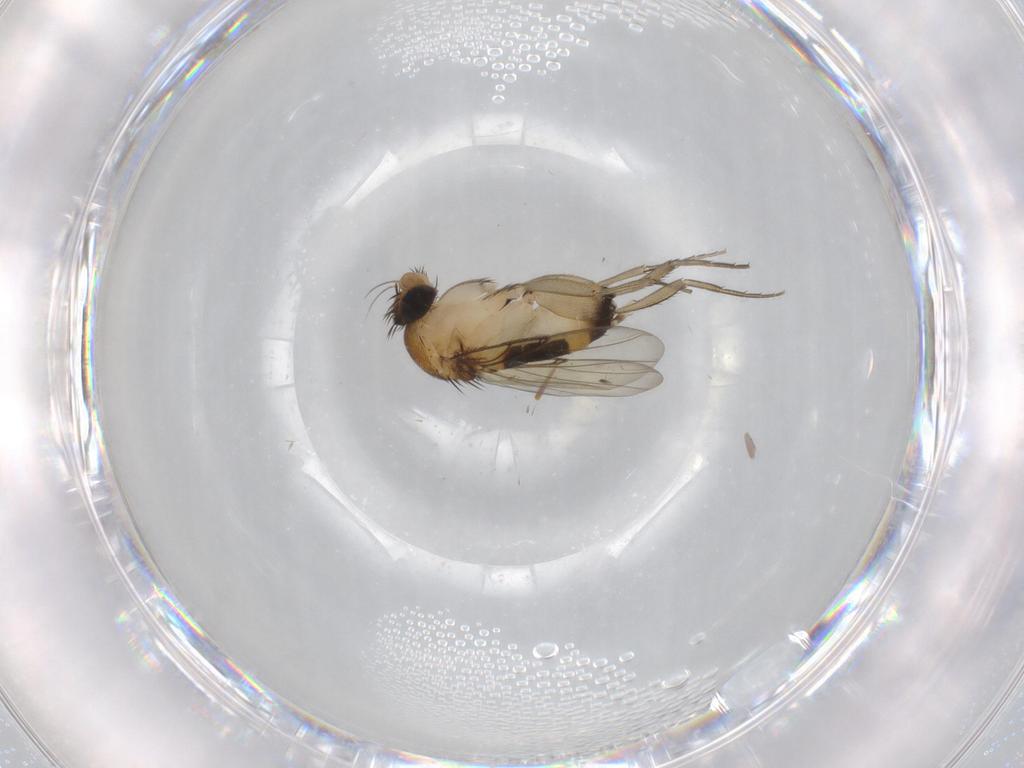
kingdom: Animalia
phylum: Arthropoda
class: Insecta
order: Diptera
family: Phoridae
